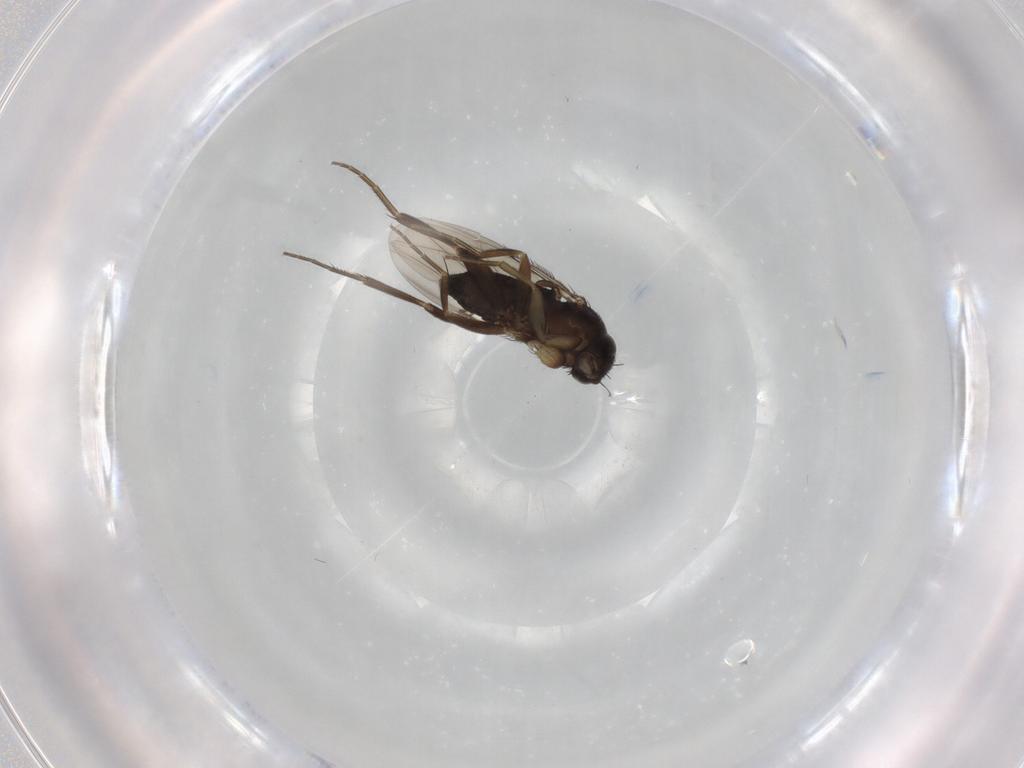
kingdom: Animalia
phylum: Arthropoda
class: Insecta
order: Diptera
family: Phoridae
